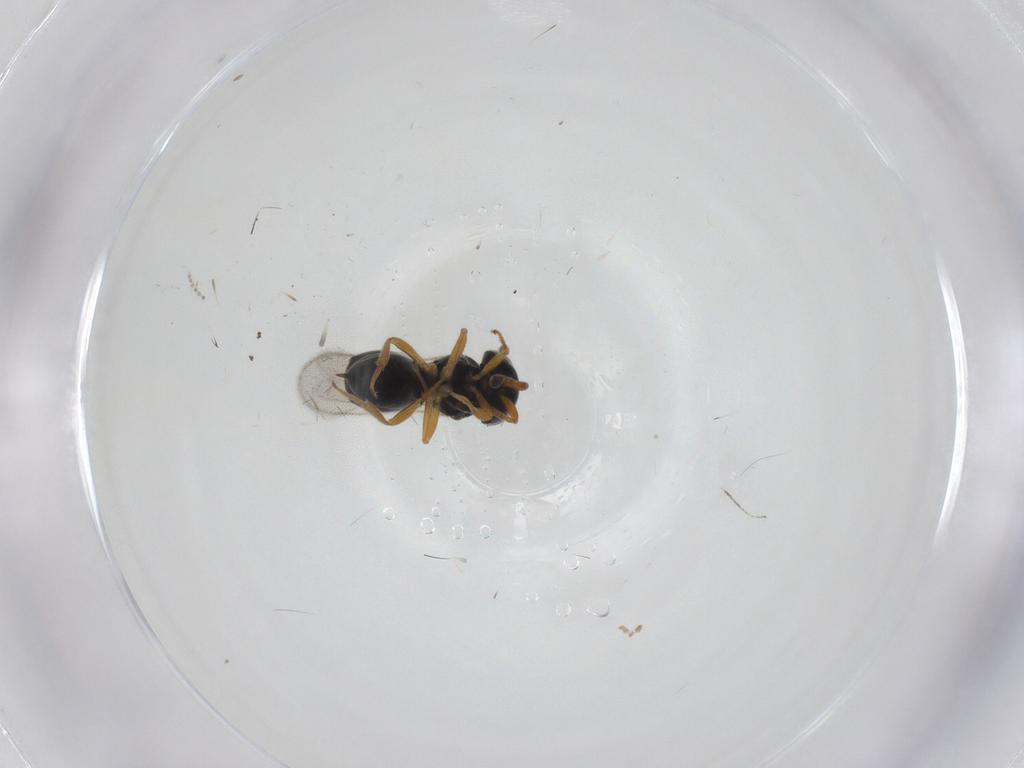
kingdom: Animalia
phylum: Arthropoda
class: Insecta
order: Hymenoptera
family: Scelionidae
